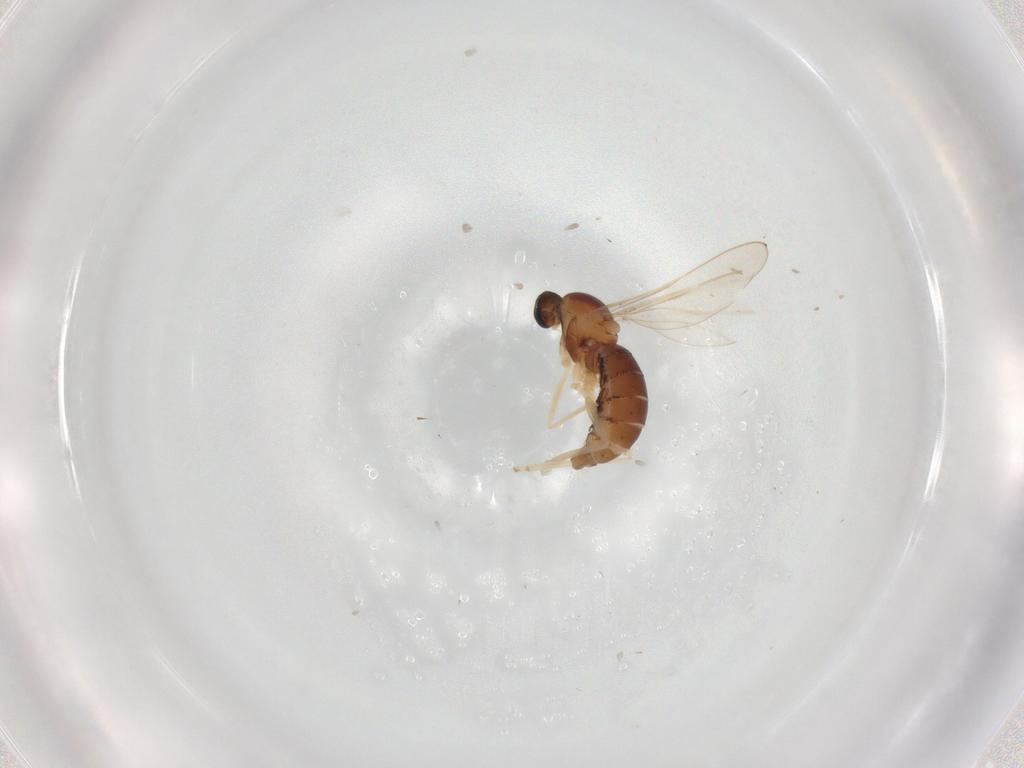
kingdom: Animalia
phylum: Arthropoda
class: Insecta
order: Diptera
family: Cecidomyiidae
